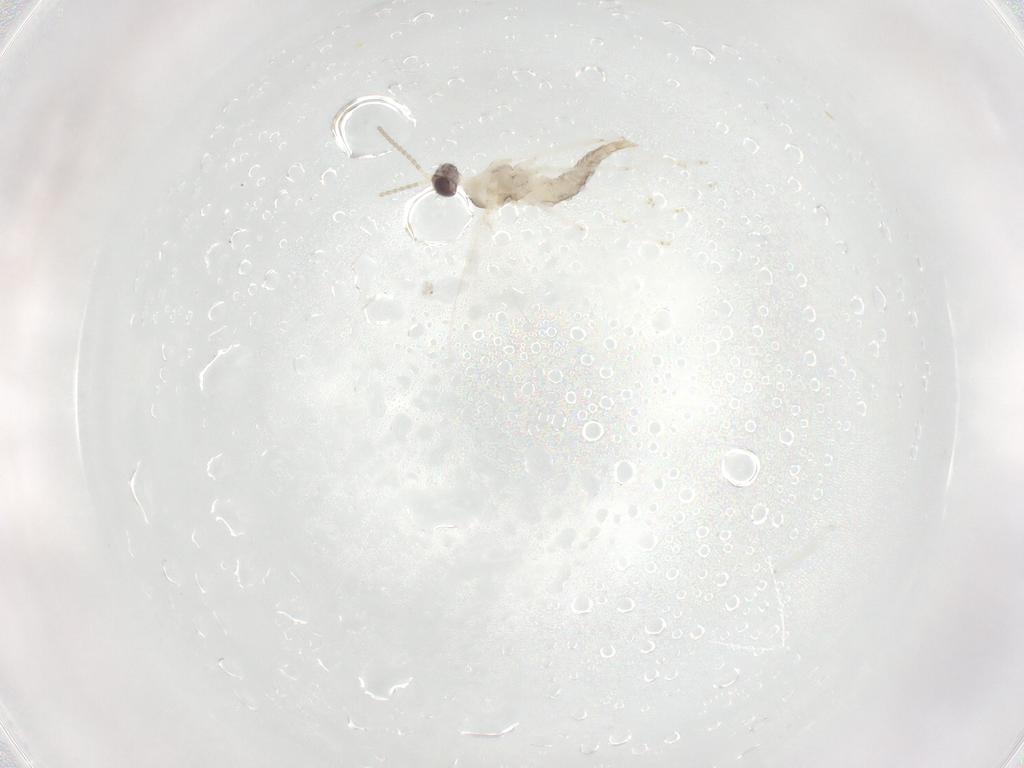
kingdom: Animalia
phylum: Arthropoda
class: Insecta
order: Diptera
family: Cecidomyiidae
